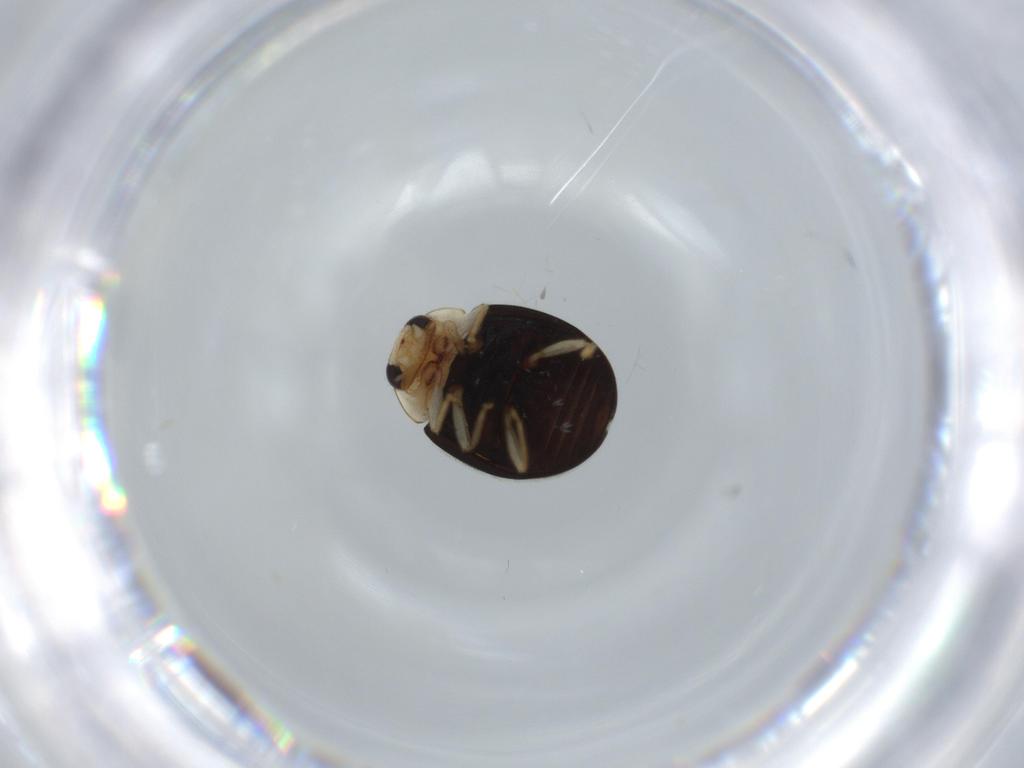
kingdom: Animalia
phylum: Arthropoda
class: Insecta
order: Coleoptera
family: Coccinellidae
